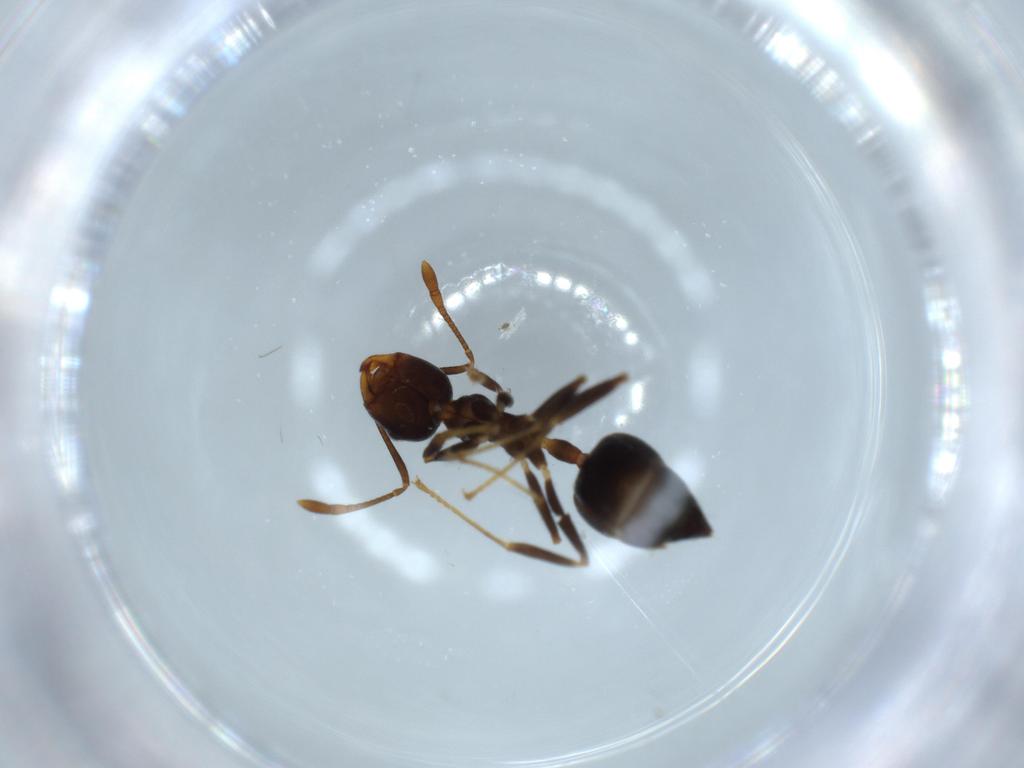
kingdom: Animalia
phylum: Arthropoda
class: Insecta
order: Hymenoptera
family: Formicidae
